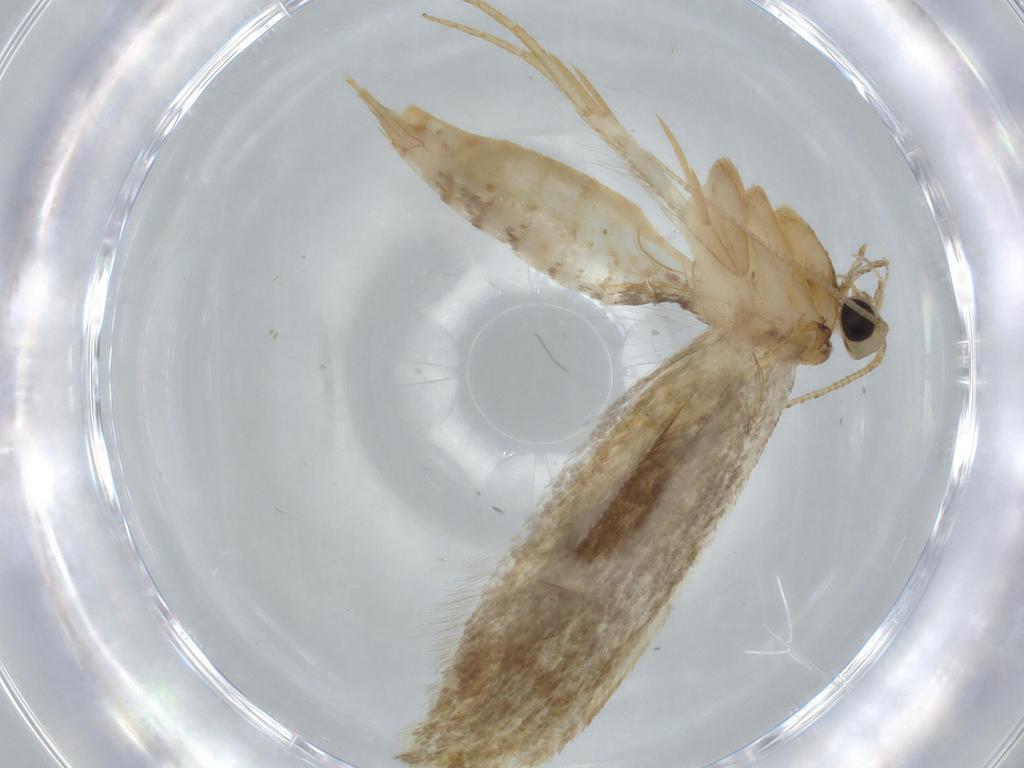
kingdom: Animalia
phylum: Arthropoda
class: Insecta
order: Lepidoptera
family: Tineidae
